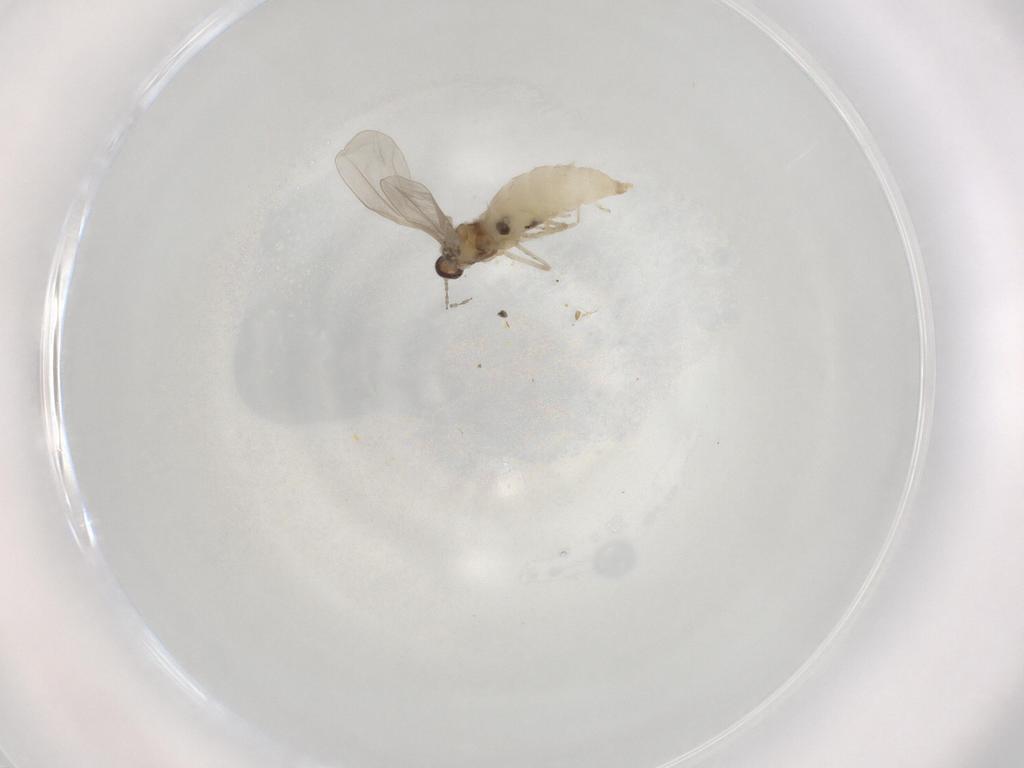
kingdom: Animalia
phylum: Arthropoda
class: Insecta
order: Diptera
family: Cecidomyiidae
